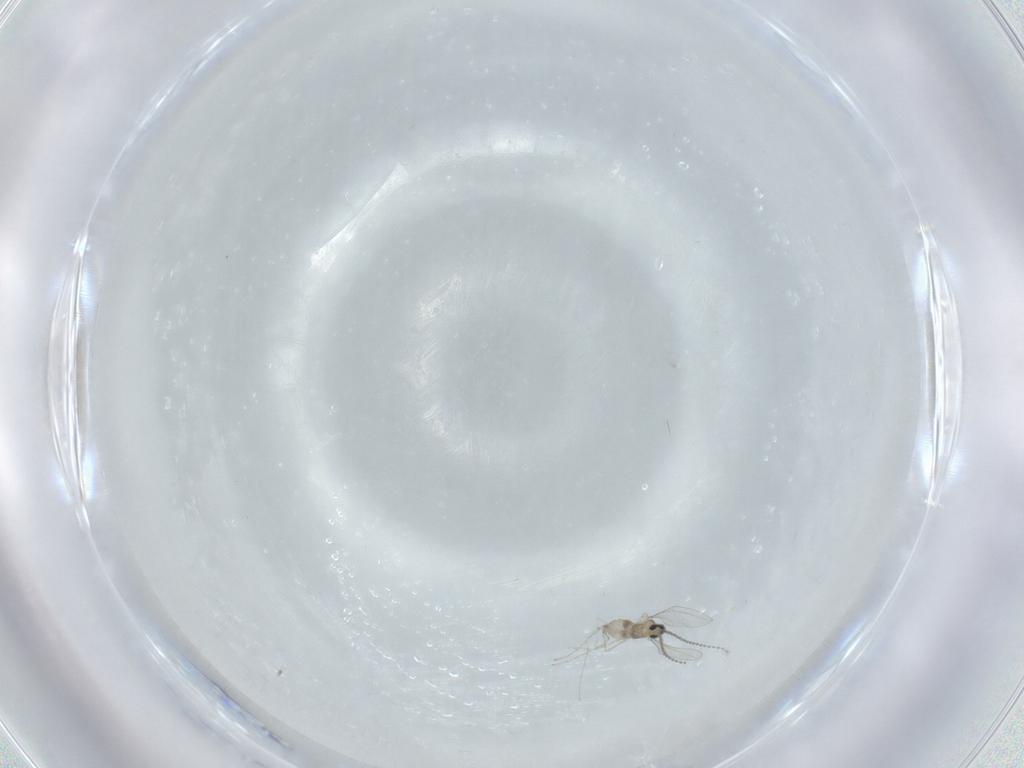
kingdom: Animalia
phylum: Arthropoda
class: Insecta
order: Diptera
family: Cecidomyiidae
